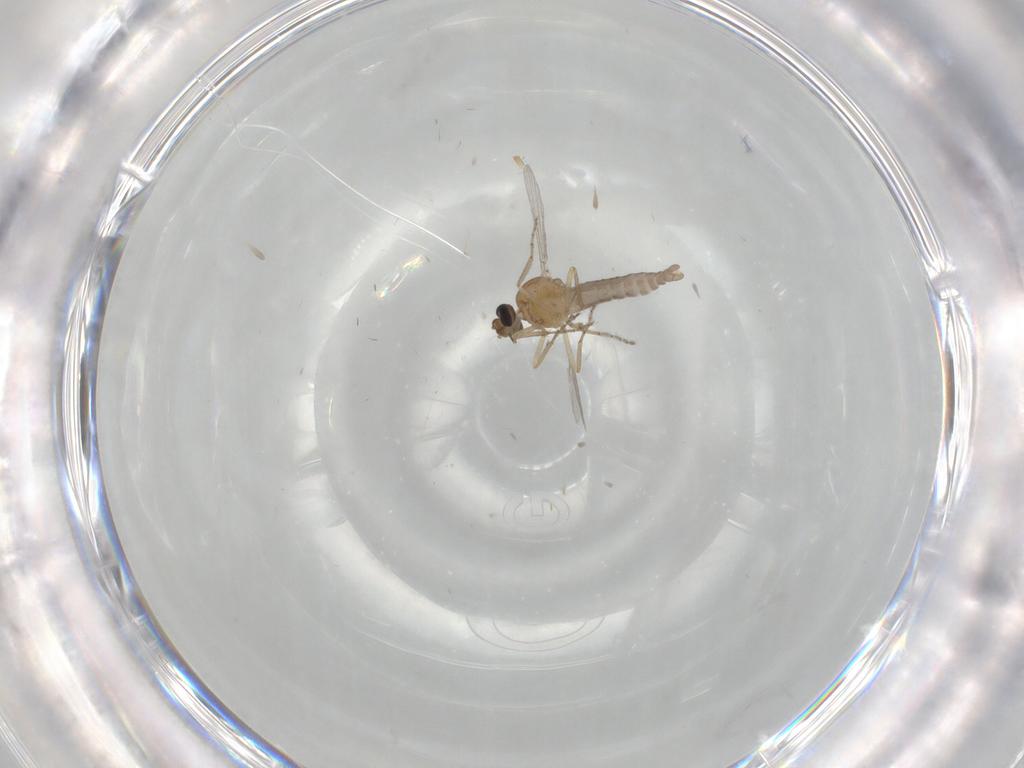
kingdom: Animalia
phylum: Arthropoda
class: Insecta
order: Diptera
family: Ceratopogonidae
